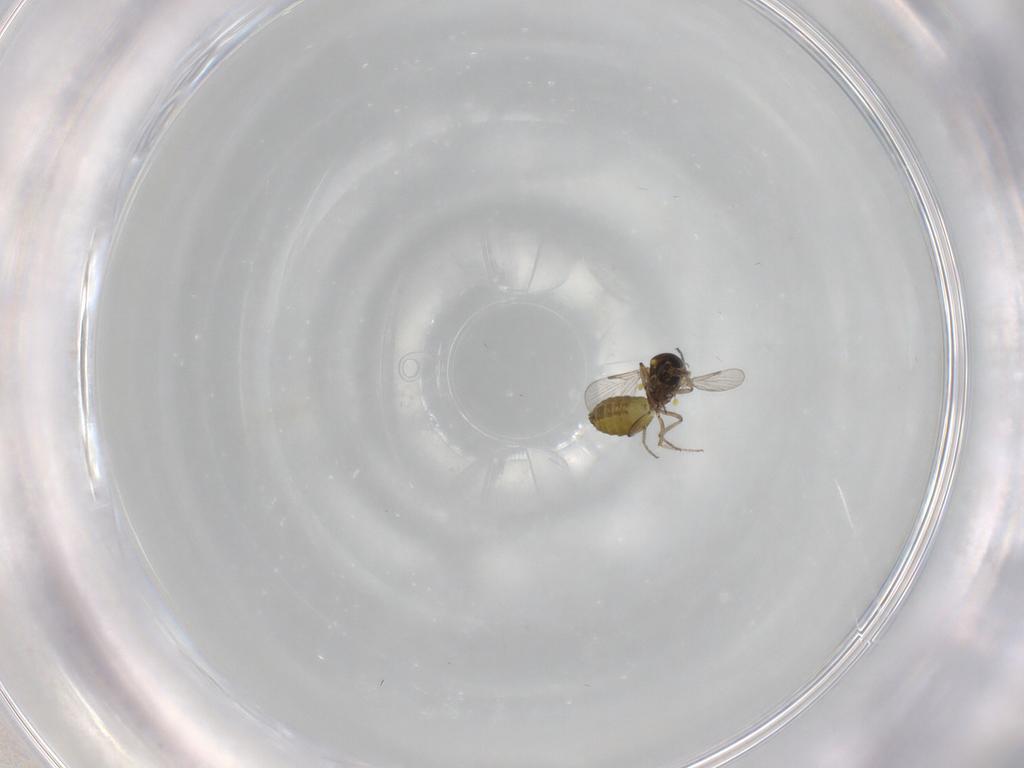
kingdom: Animalia
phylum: Arthropoda
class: Insecta
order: Diptera
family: Ceratopogonidae
